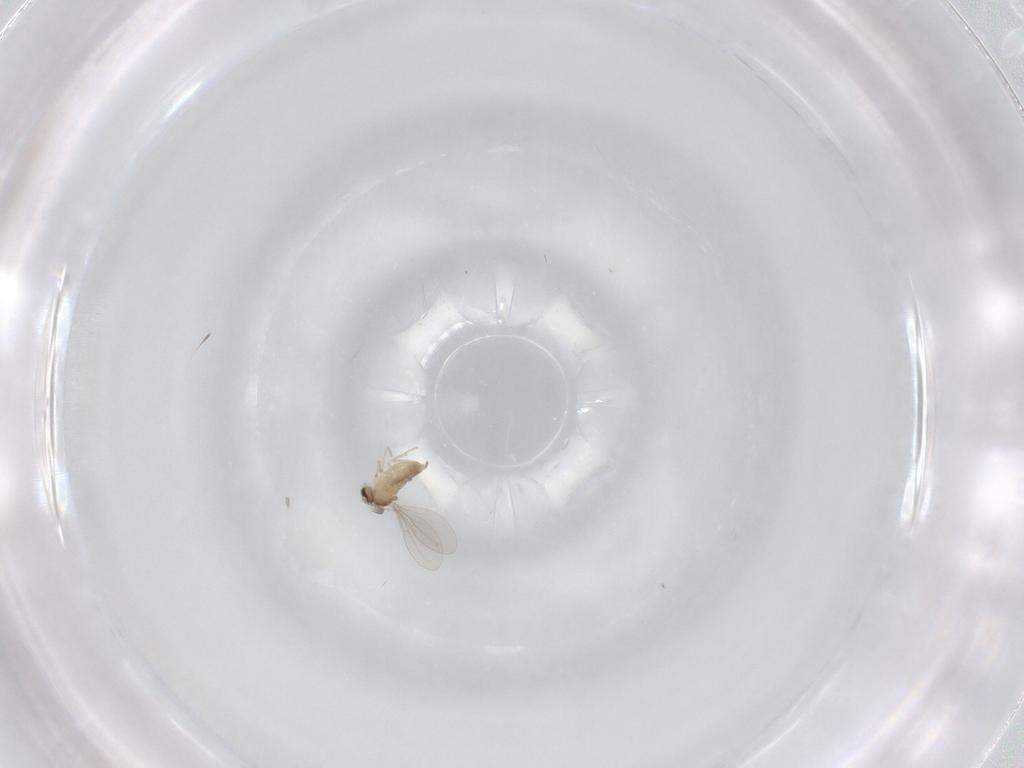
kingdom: Animalia
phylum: Arthropoda
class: Insecta
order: Diptera
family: Cecidomyiidae
